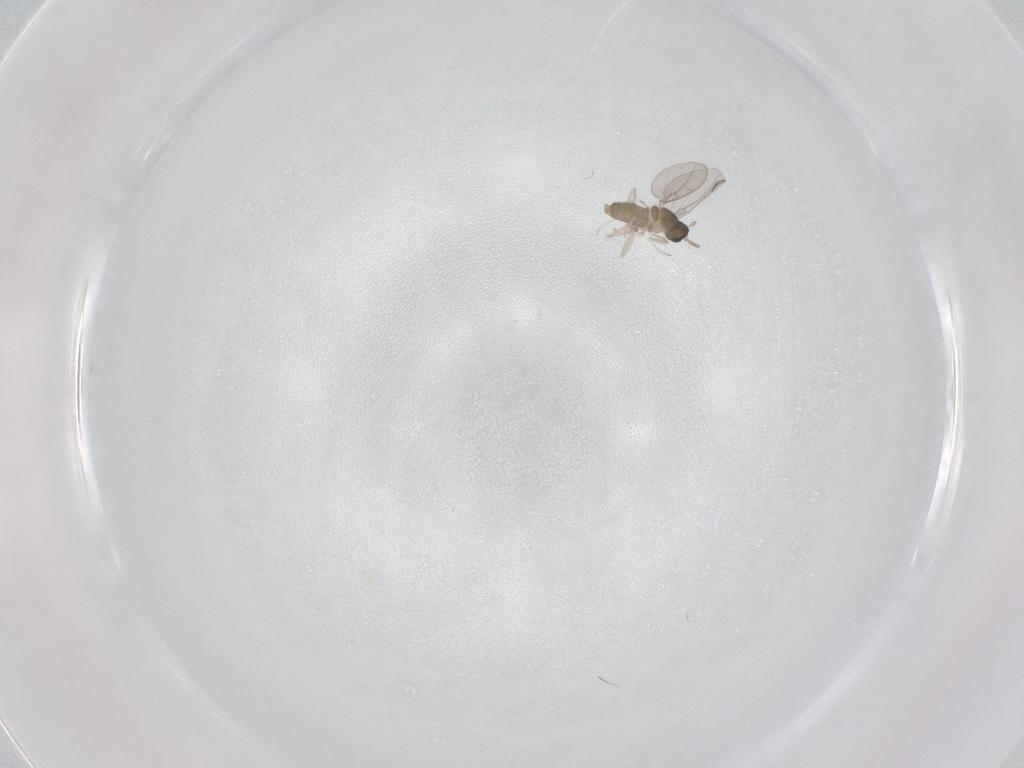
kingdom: Animalia
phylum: Arthropoda
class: Insecta
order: Diptera
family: Cecidomyiidae
